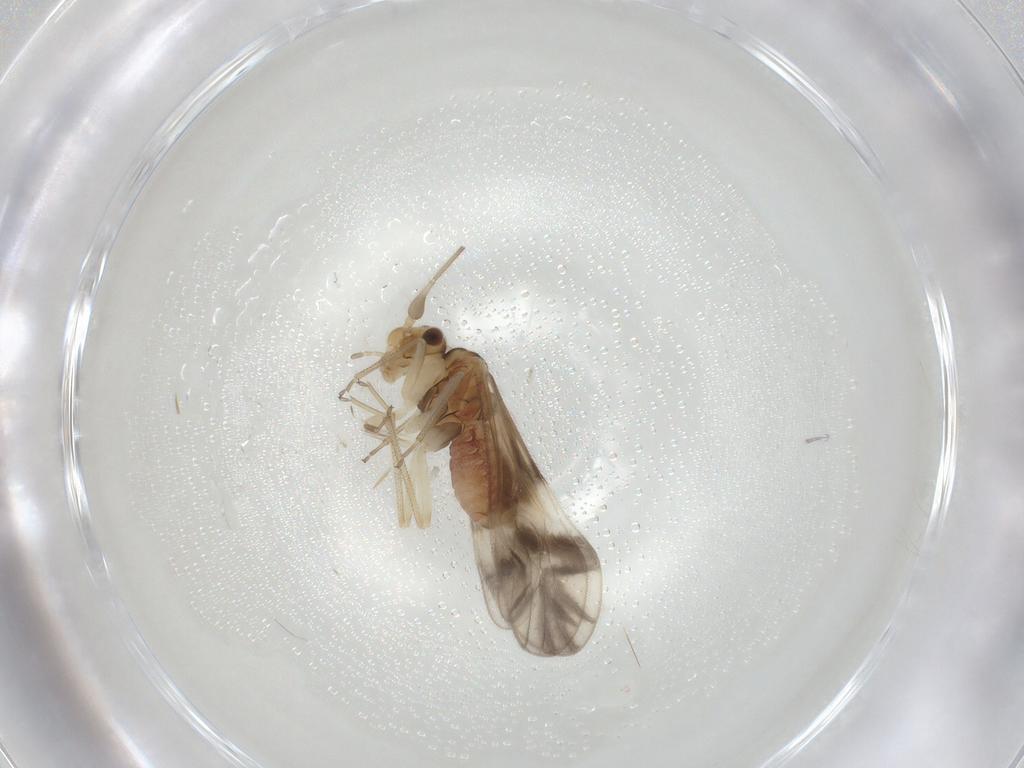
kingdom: Animalia
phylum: Arthropoda
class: Insecta
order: Psocodea
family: Caeciliusidae
